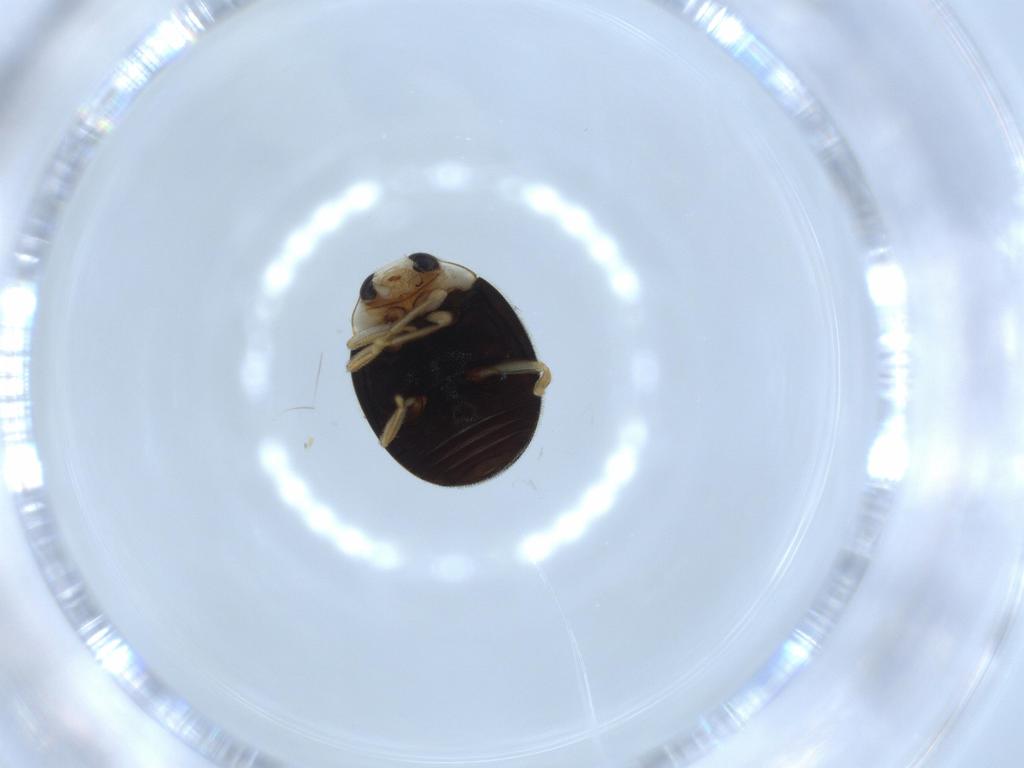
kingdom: Animalia
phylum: Arthropoda
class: Insecta
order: Coleoptera
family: Coccinellidae
